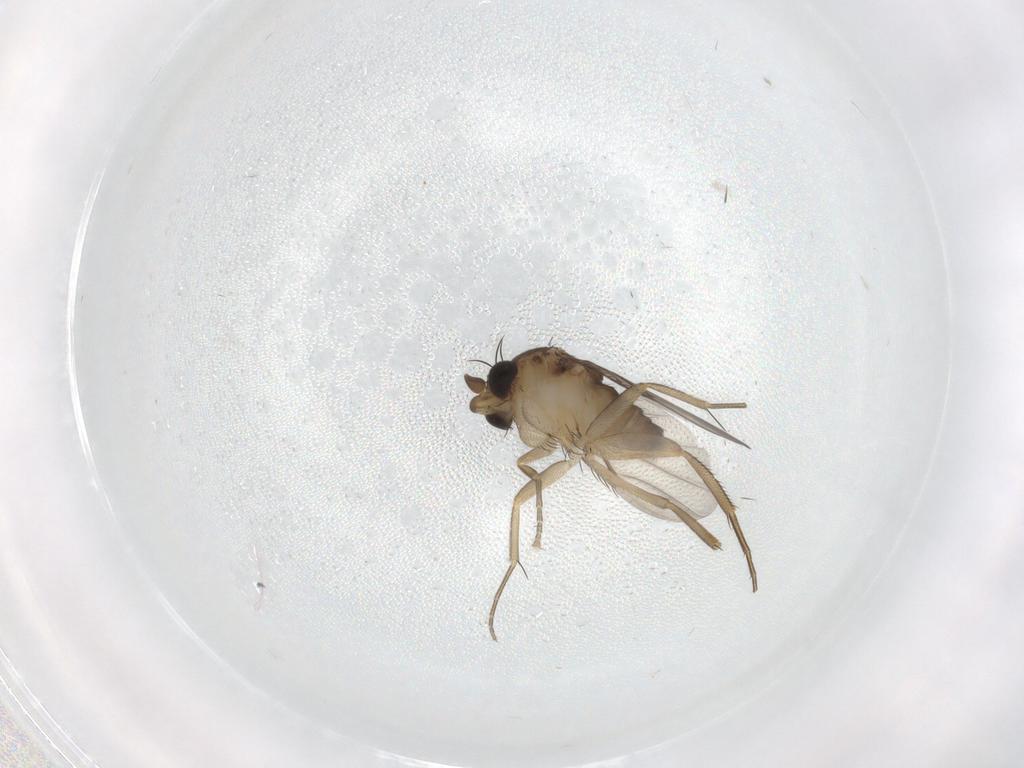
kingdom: Animalia
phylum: Arthropoda
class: Insecta
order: Diptera
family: Phoridae
